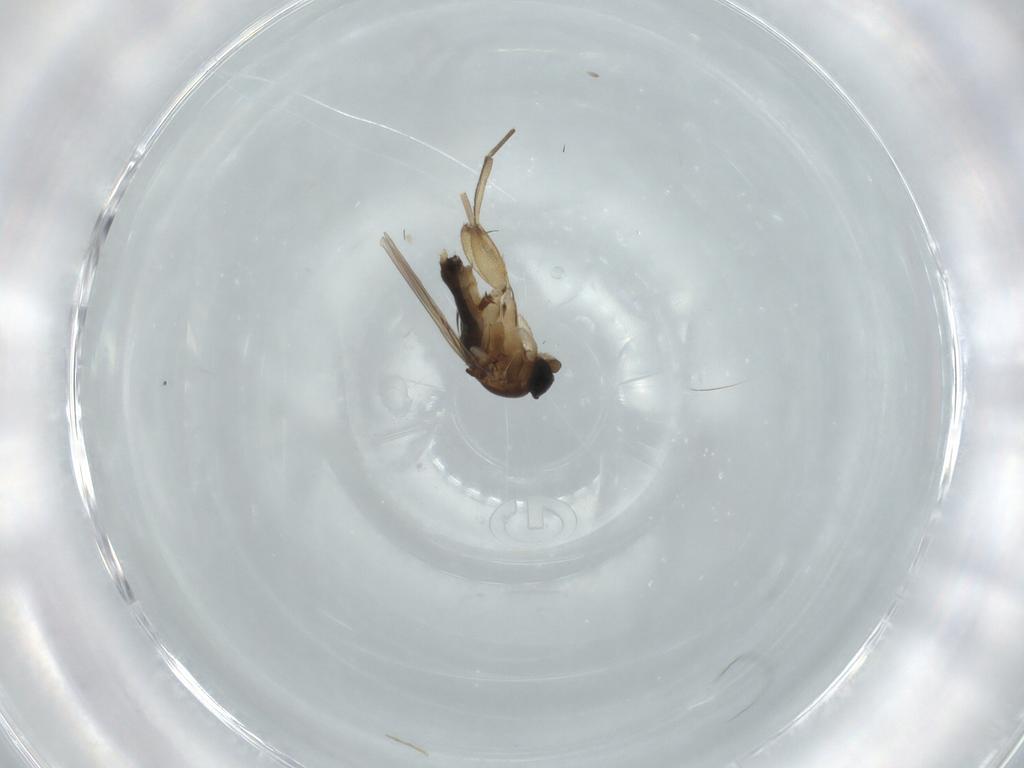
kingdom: Animalia
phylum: Arthropoda
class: Insecta
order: Diptera
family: Phoridae
